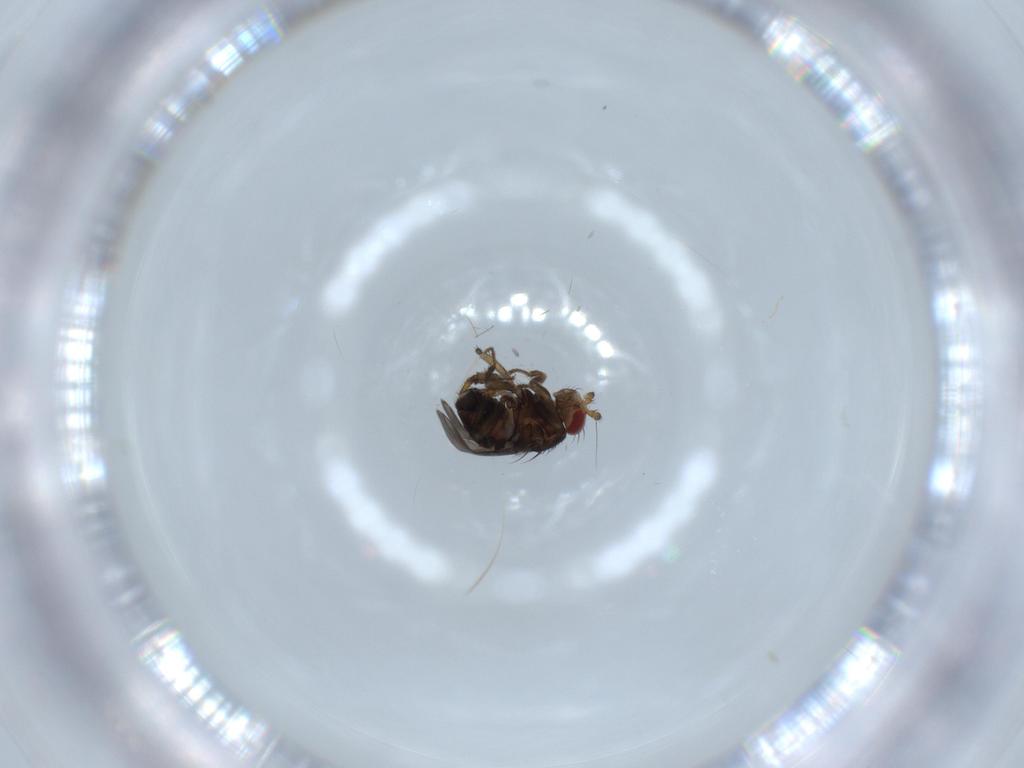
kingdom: Animalia
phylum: Arthropoda
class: Insecta
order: Diptera
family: Sphaeroceridae
